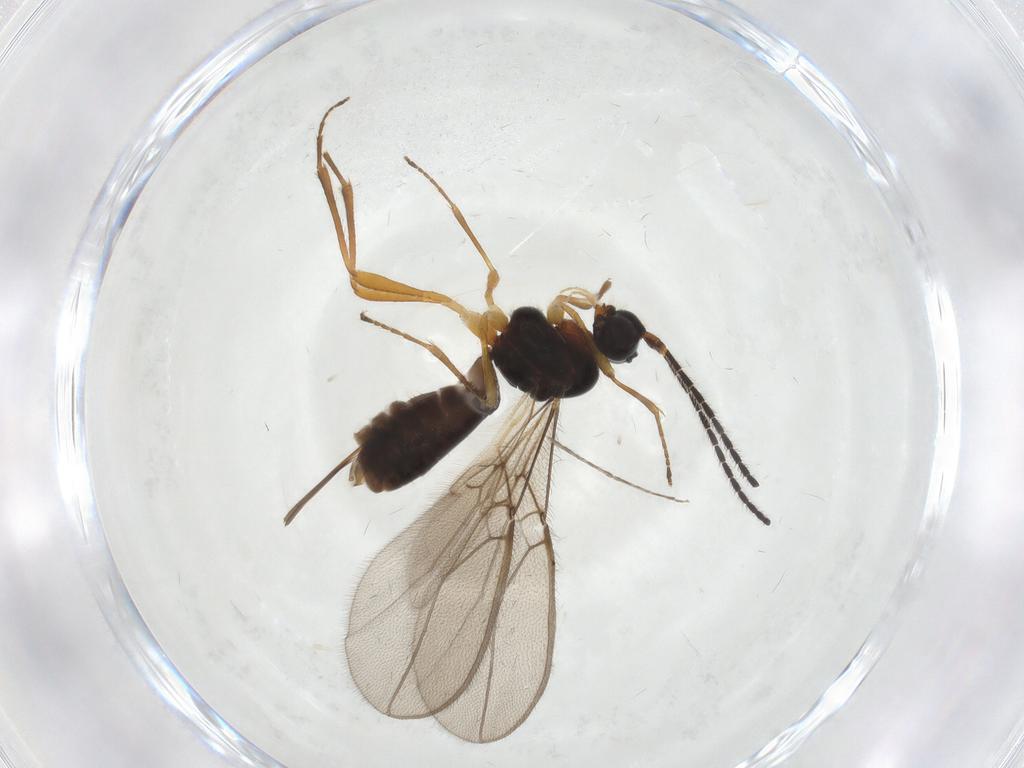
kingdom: Animalia
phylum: Arthropoda
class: Insecta
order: Hymenoptera
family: Braconidae
